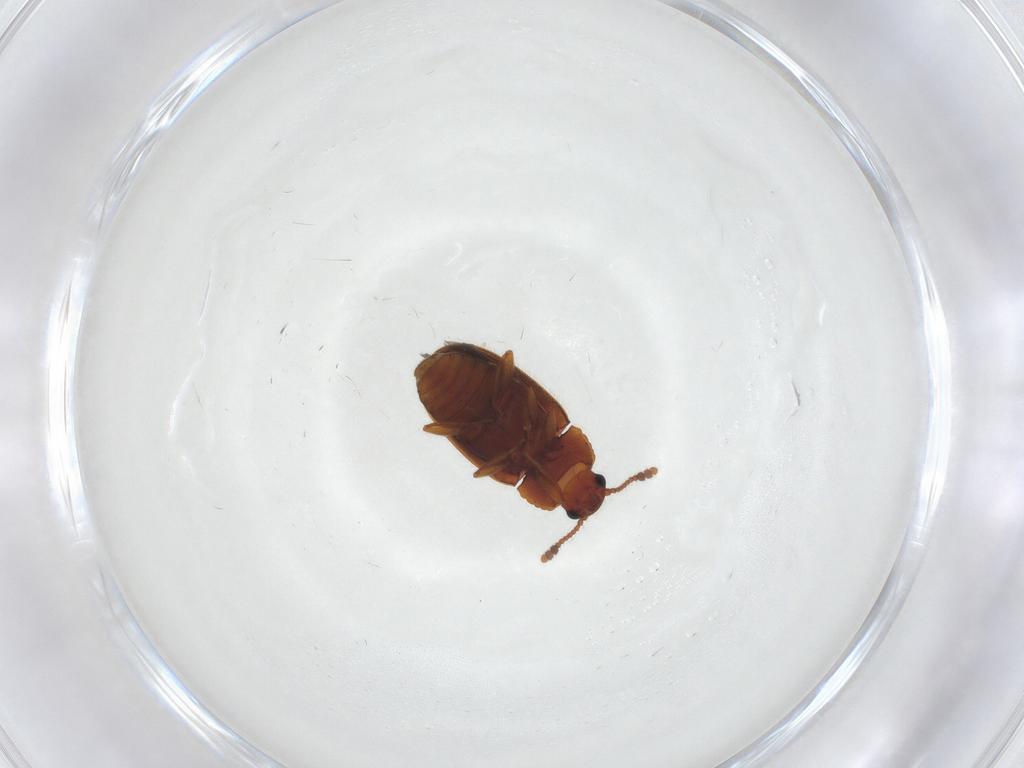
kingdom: Animalia
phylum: Arthropoda
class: Insecta
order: Coleoptera
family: Erotylidae
